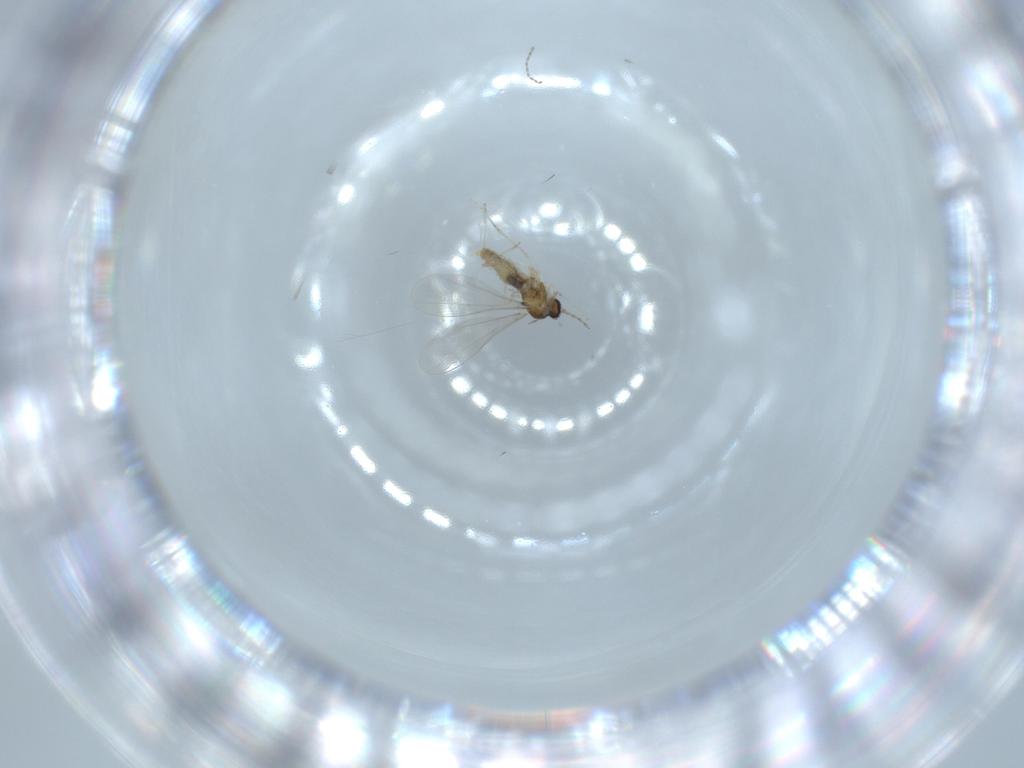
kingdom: Animalia
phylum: Arthropoda
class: Insecta
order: Diptera
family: Cecidomyiidae
